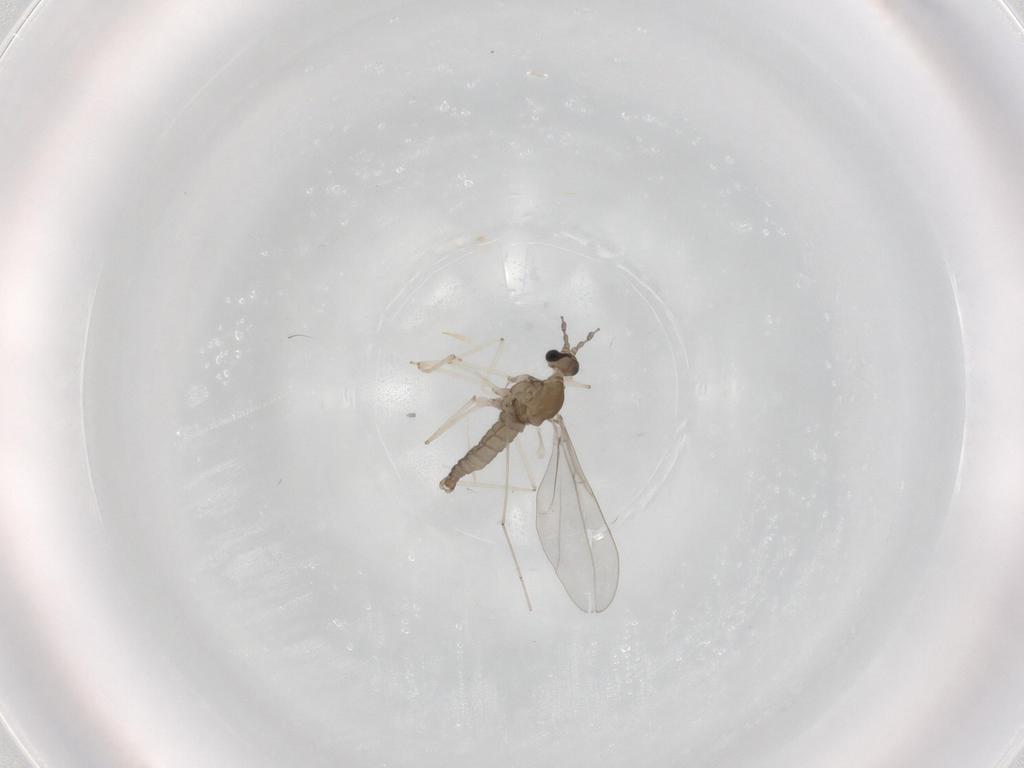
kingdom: Animalia
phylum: Arthropoda
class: Insecta
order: Diptera
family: Cecidomyiidae
